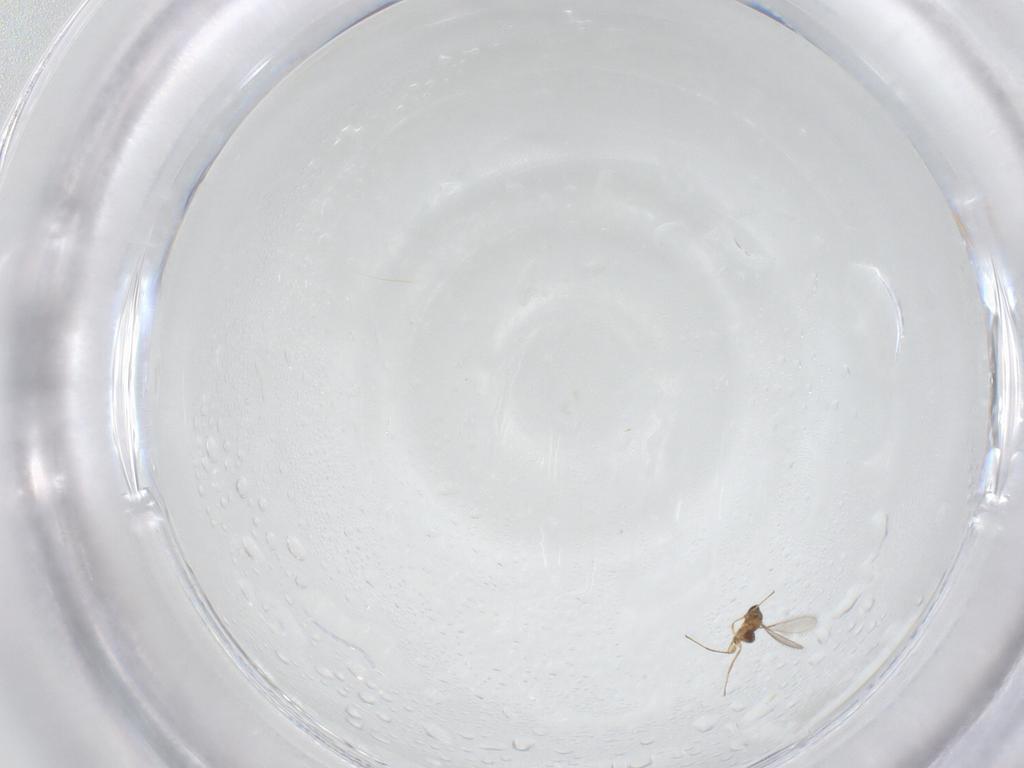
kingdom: Animalia
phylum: Arthropoda
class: Insecta
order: Hymenoptera
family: Mymaridae
